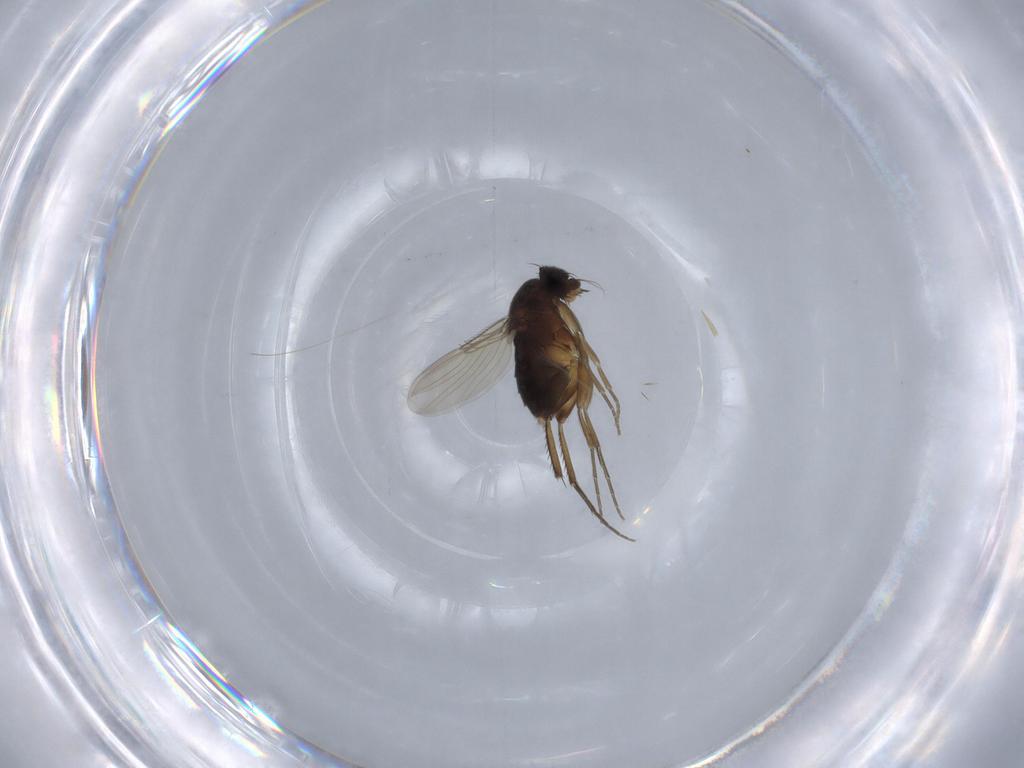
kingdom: Animalia
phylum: Arthropoda
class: Insecta
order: Diptera
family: Phoridae
